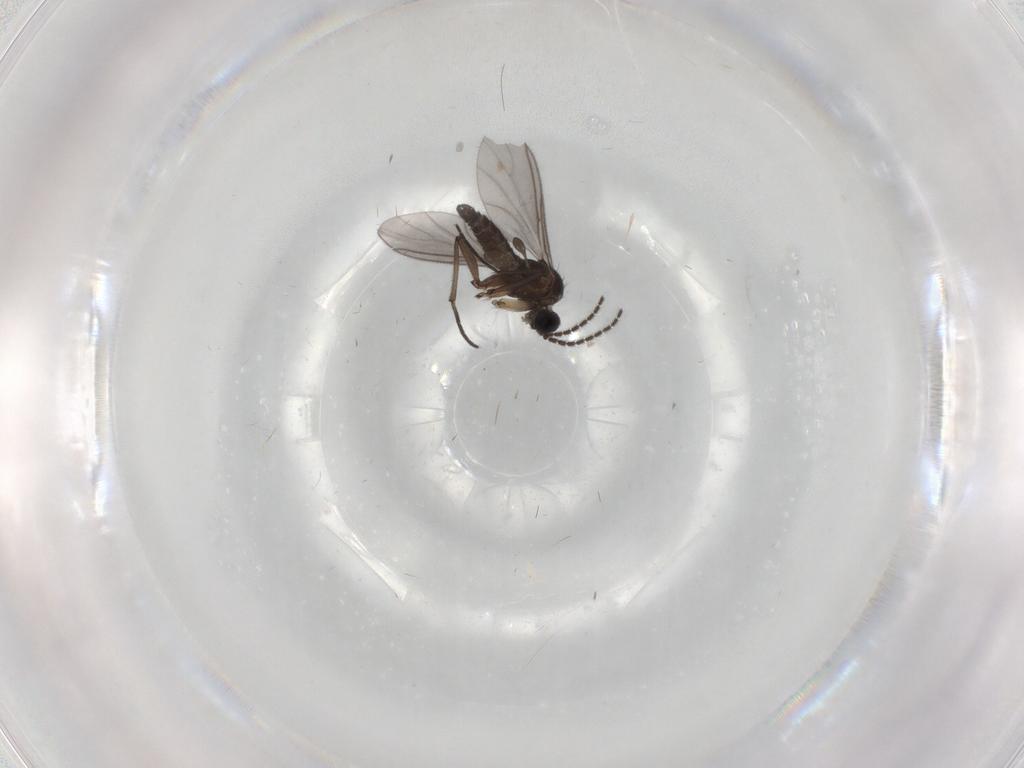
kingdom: Animalia
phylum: Arthropoda
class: Insecta
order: Diptera
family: Sciaridae
